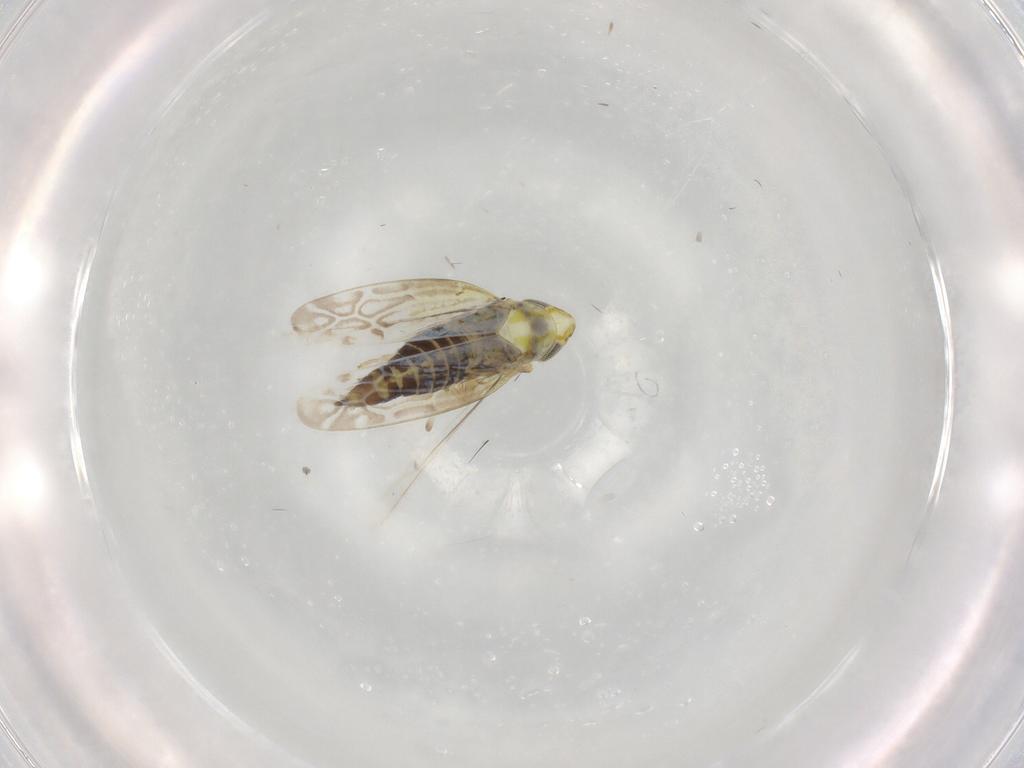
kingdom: Animalia
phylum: Arthropoda
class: Insecta
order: Hemiptera
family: Cicadellidae
